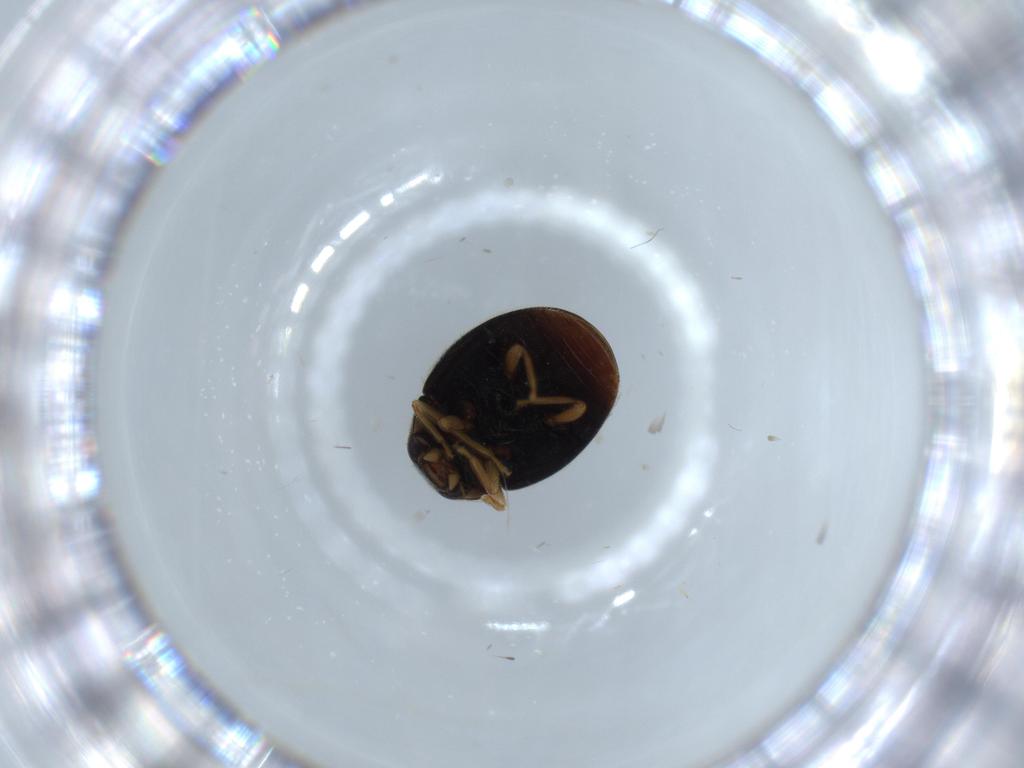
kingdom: Animalia
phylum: Arthropoda
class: Insecta
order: Coleoptera
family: Coccinellidae
